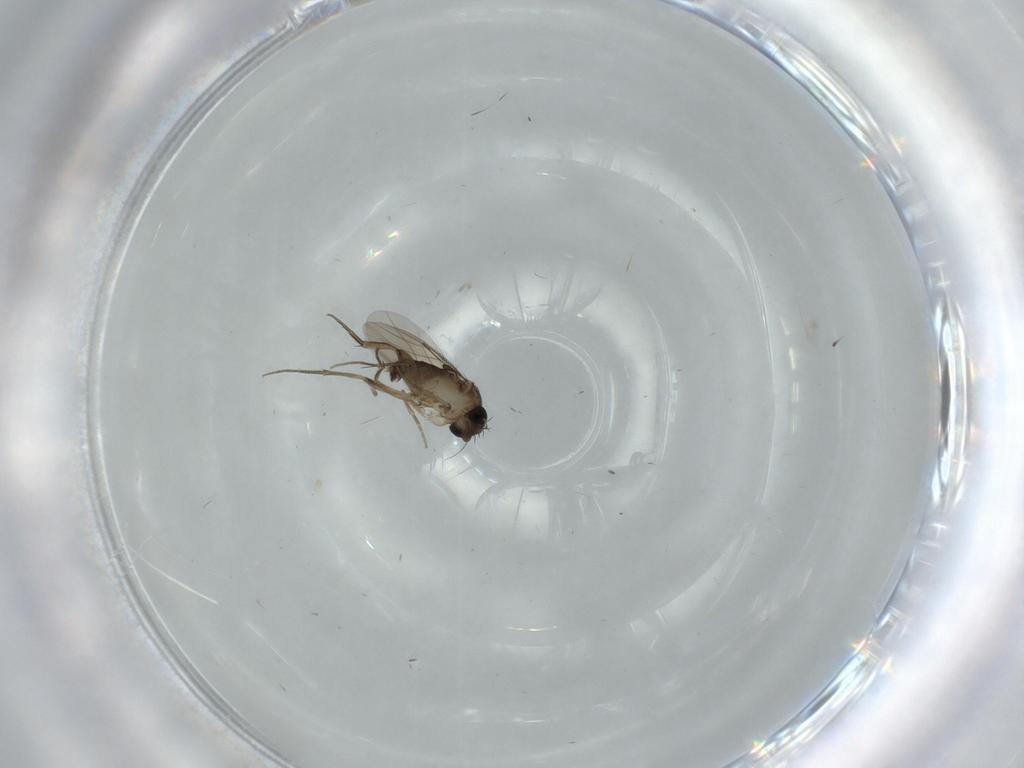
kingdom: Animalia
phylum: Arthropoda
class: Insecta
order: Diptera
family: Phoridae
